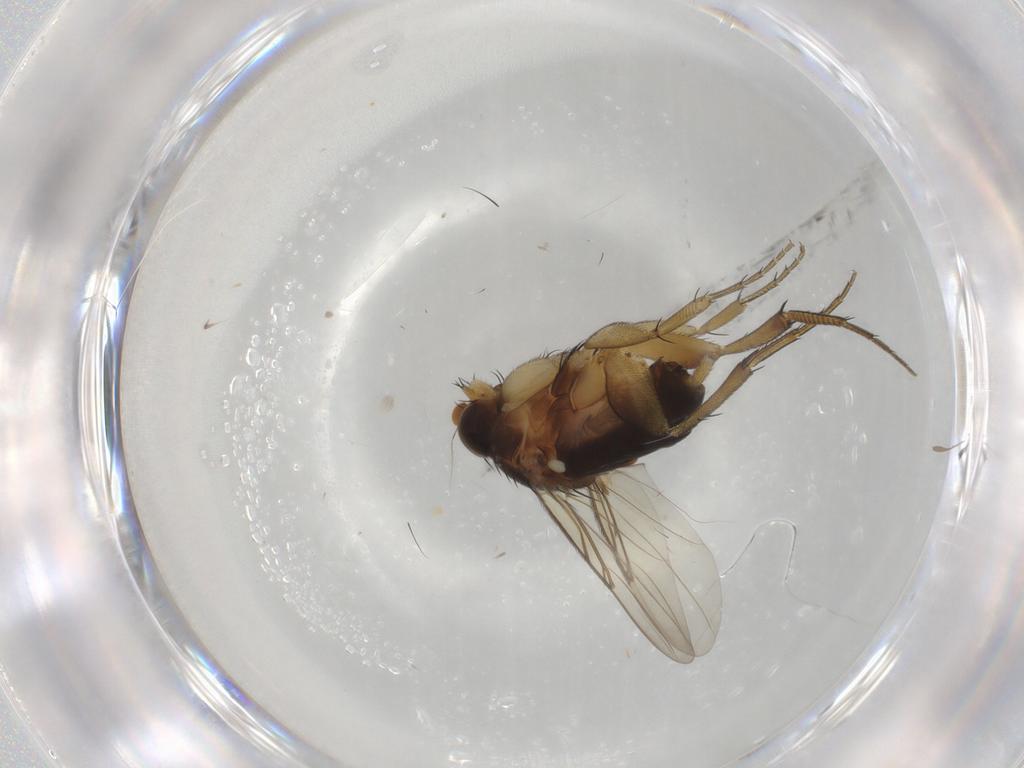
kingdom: Animalia
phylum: Arthropoda
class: Insecta
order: Diptera
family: Phoridae
